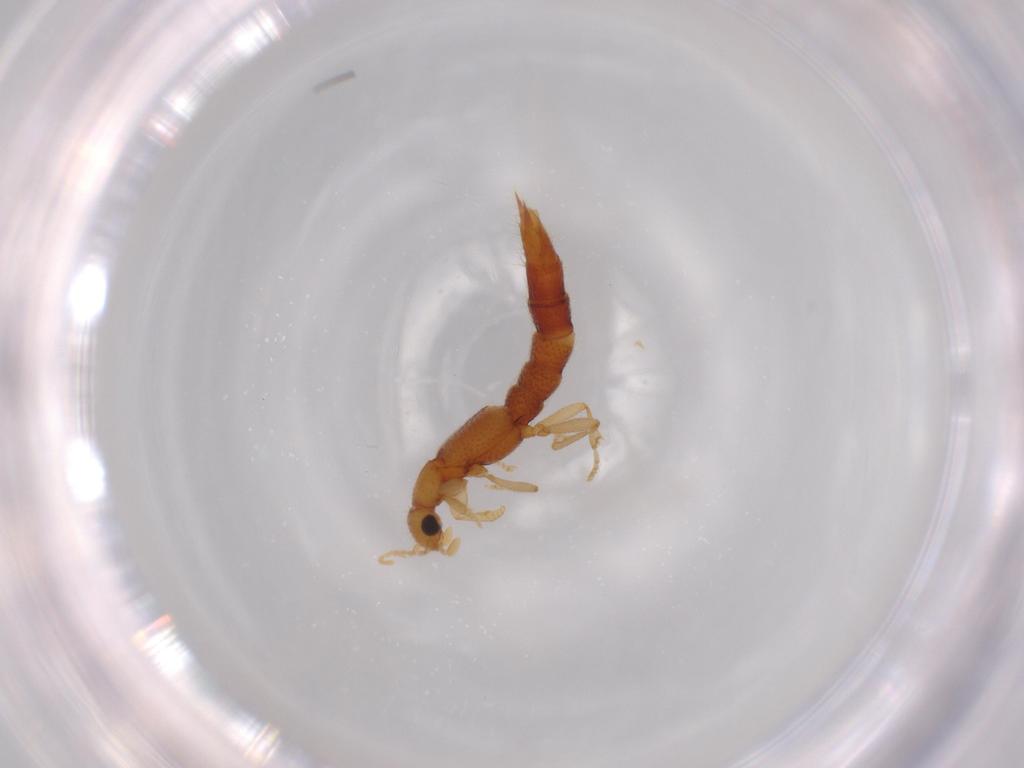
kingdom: Animalia
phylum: Arthropoda
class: Insecta
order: Coleoptera
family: Staphylinidae
